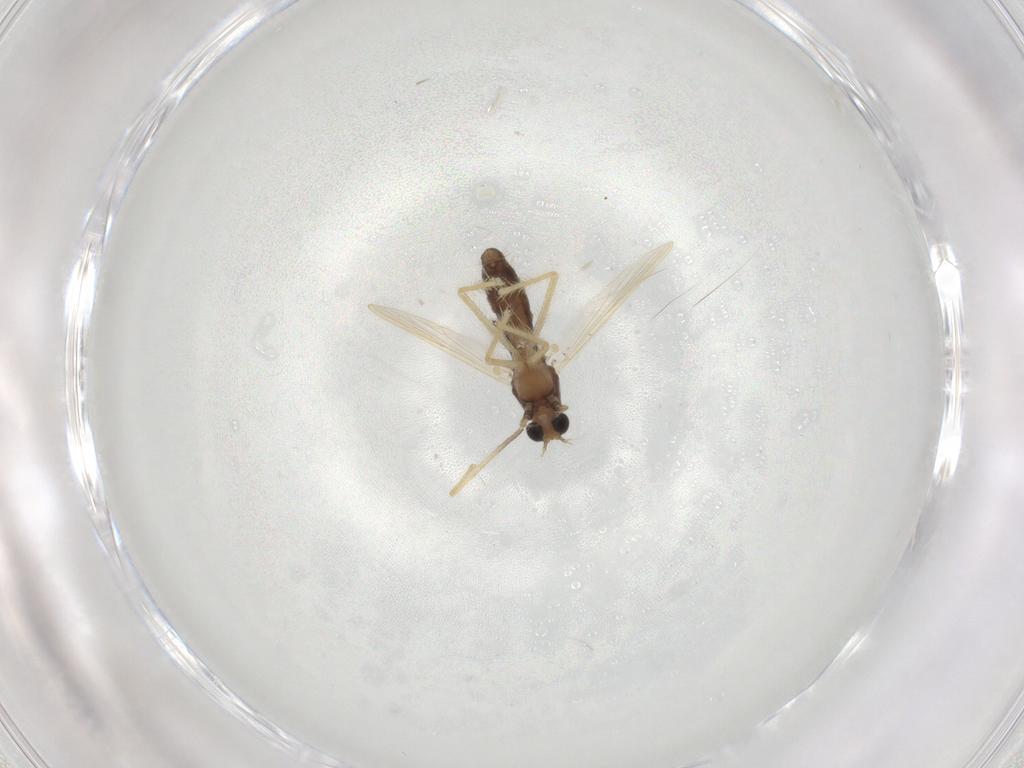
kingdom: Animalia
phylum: Arthropoda
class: Insecta
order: Diptera
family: Chironomidae
